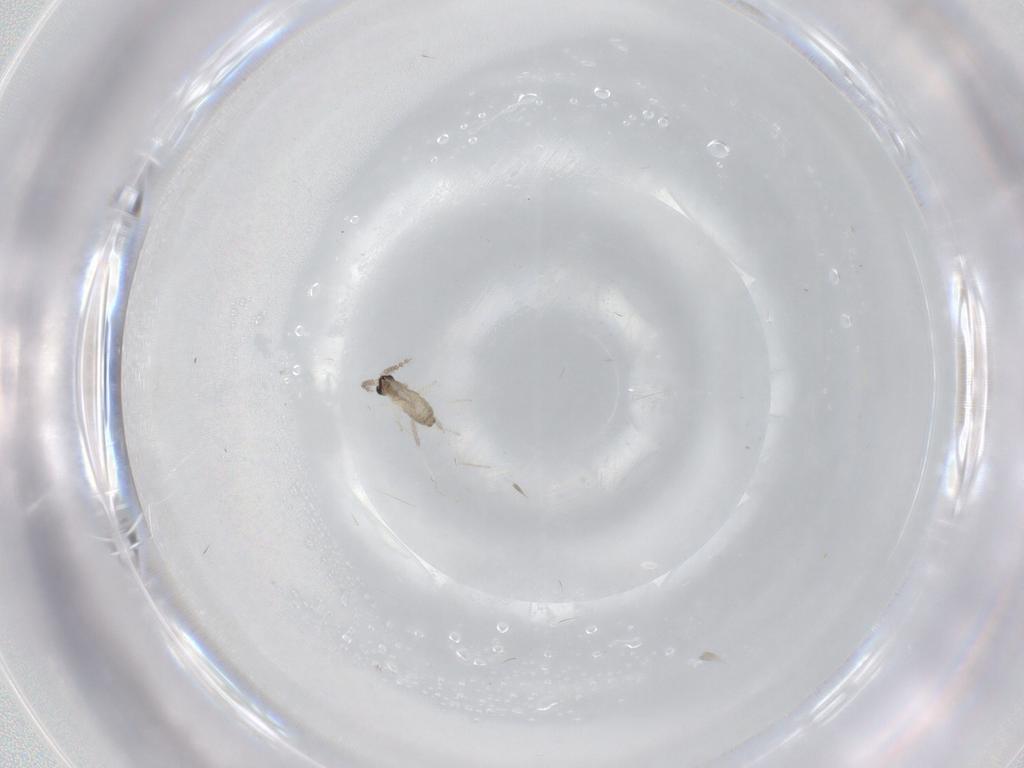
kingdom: Animalia
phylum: Arthropoda
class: Insecta
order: Diptera
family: Cecidomyiidae
